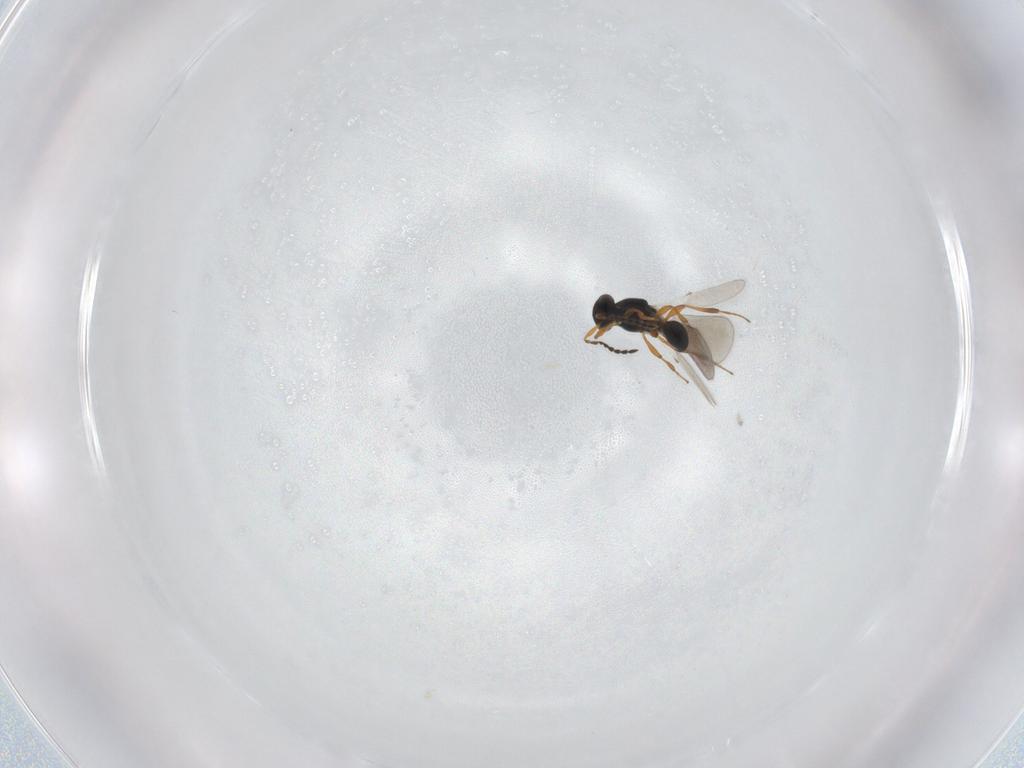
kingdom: Animalia
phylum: Arthropoda
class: Insecta
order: Hymenoptera
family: Platygastridae
